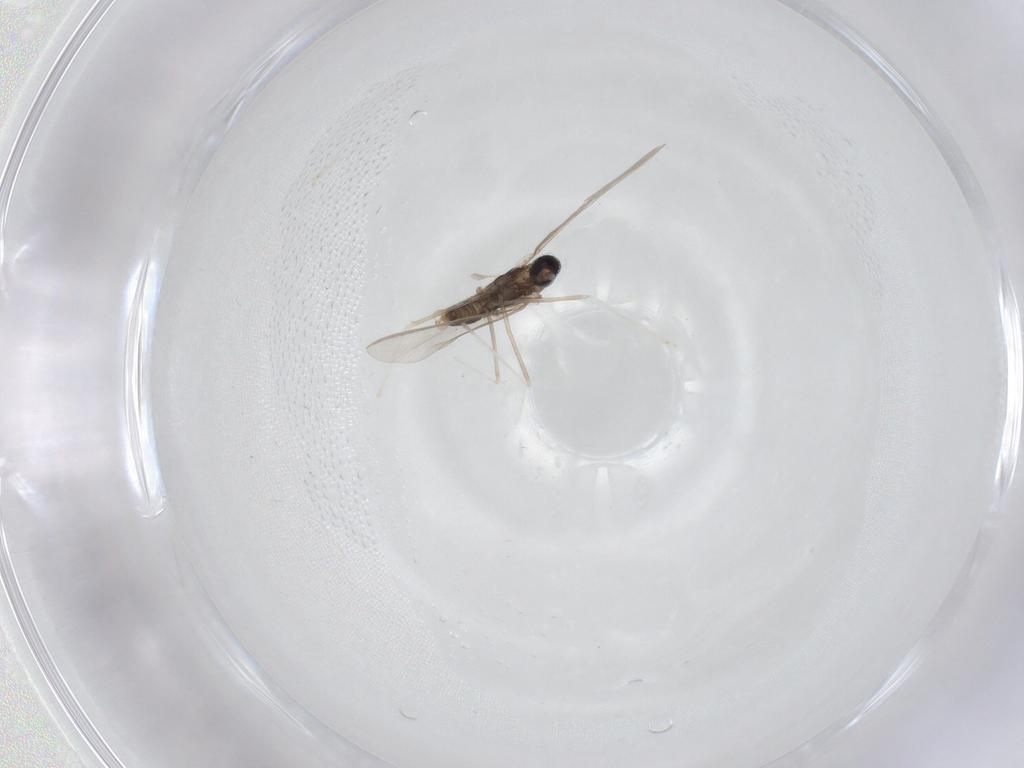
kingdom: Animalia
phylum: Arthropoda
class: Insecta
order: Diptera
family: Cecidomyiidae
